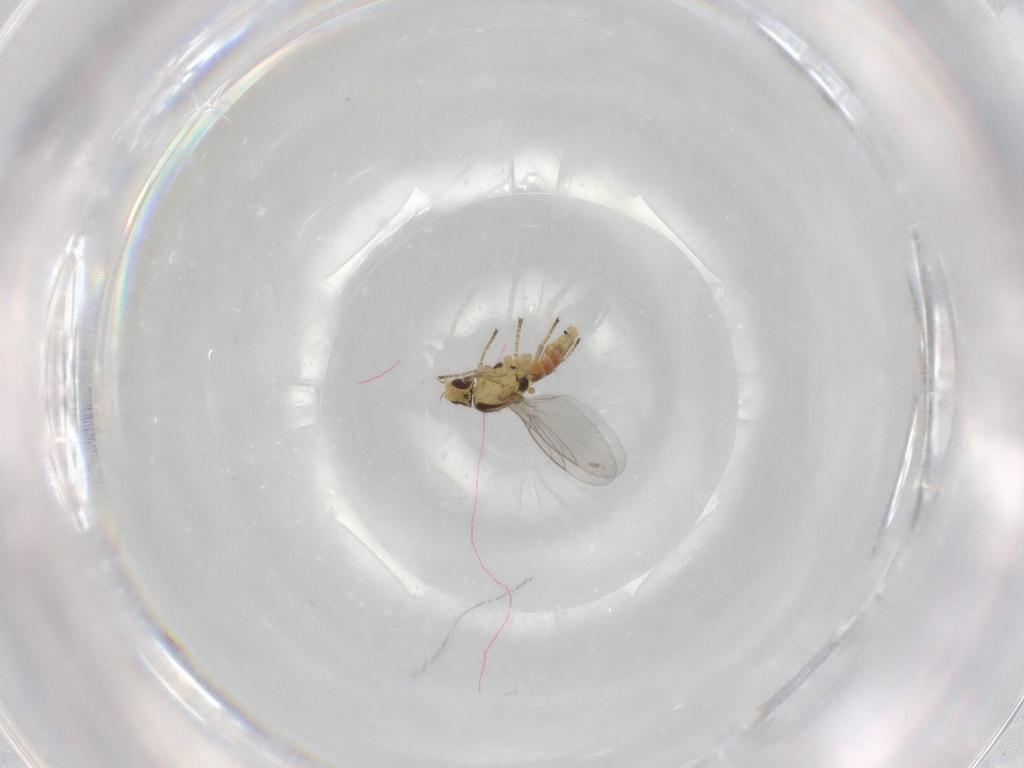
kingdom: Animalia
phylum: Arthropoda
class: Insecta
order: Diptera
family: Agromyzidae
